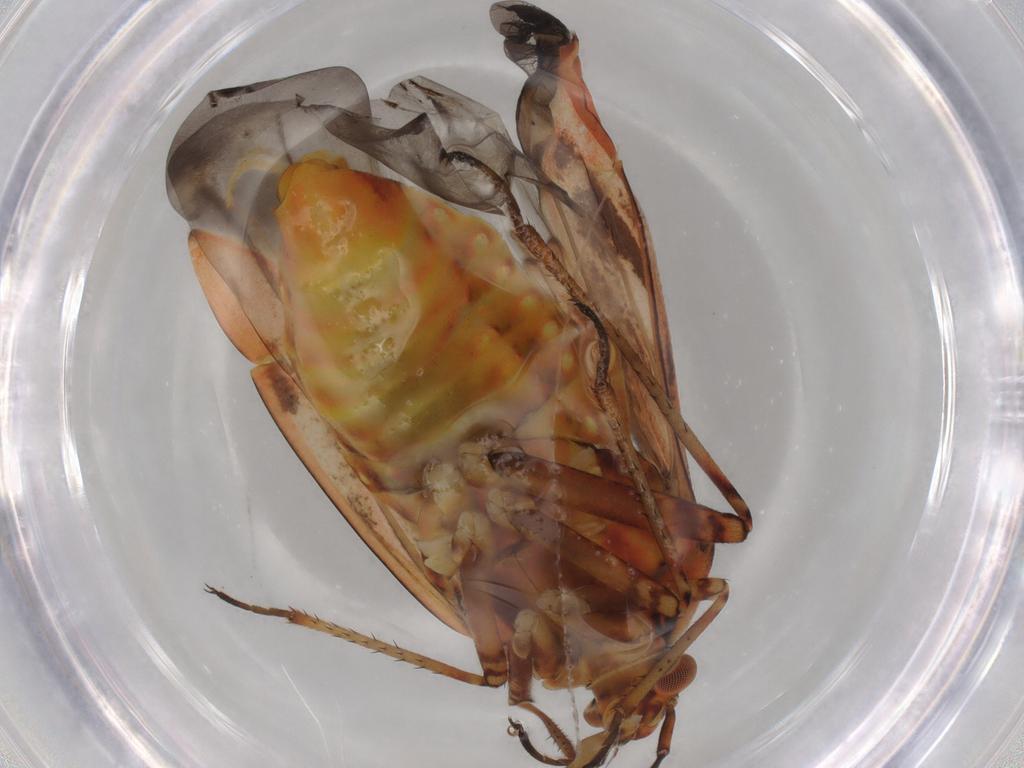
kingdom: Animalia
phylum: Arthropoda
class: Insecta
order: Hemiptera
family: Miridae
